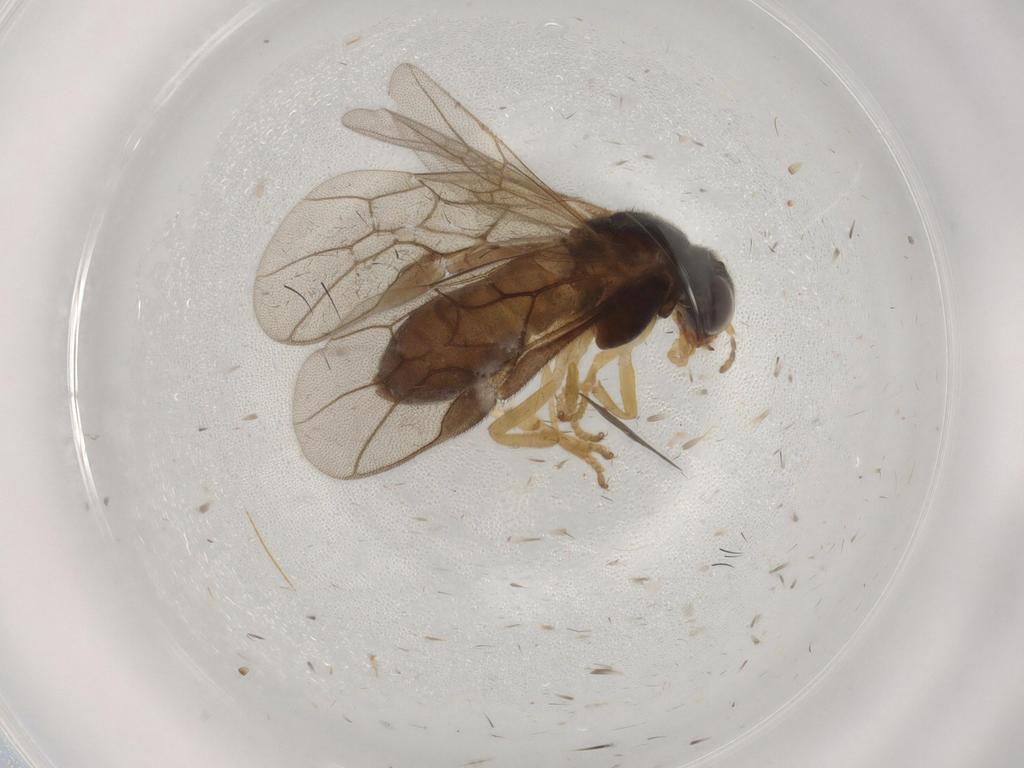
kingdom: Animalia
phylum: Arthropoda
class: Insecta
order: Hymenoptera
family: Pergidae
